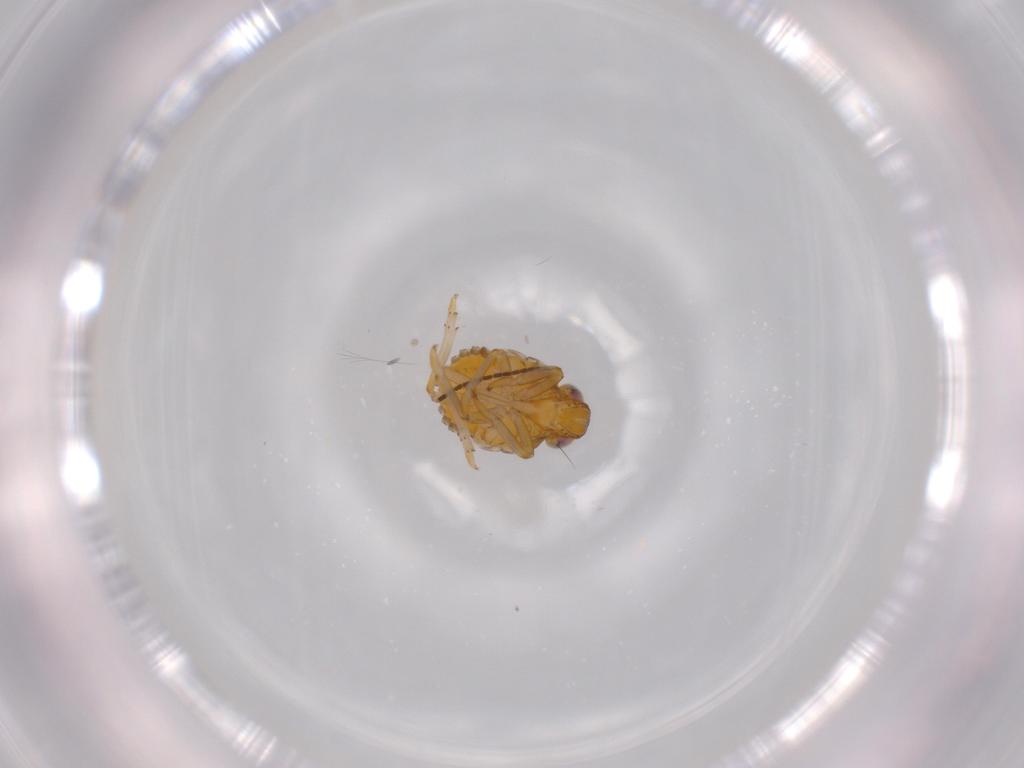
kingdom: Animalia
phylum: Arthropoda
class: Insecta
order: Hemiptera
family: Issidae
